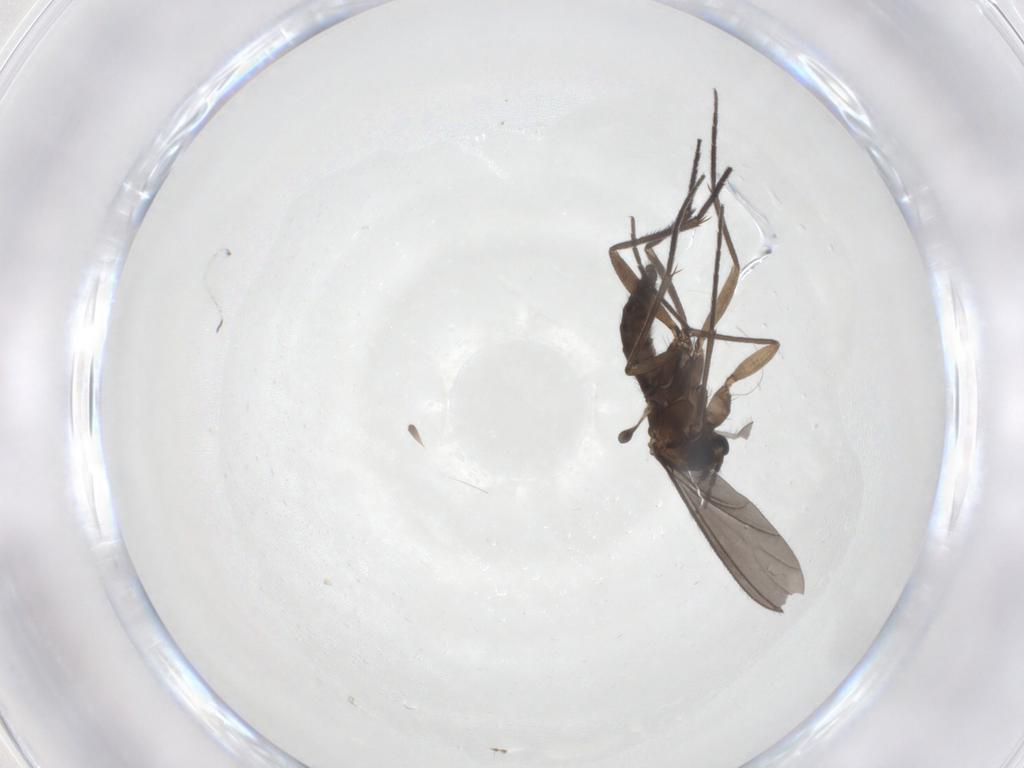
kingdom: Animalia
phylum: Arthropoda
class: Insecta
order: Diptera
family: Sciaridae
